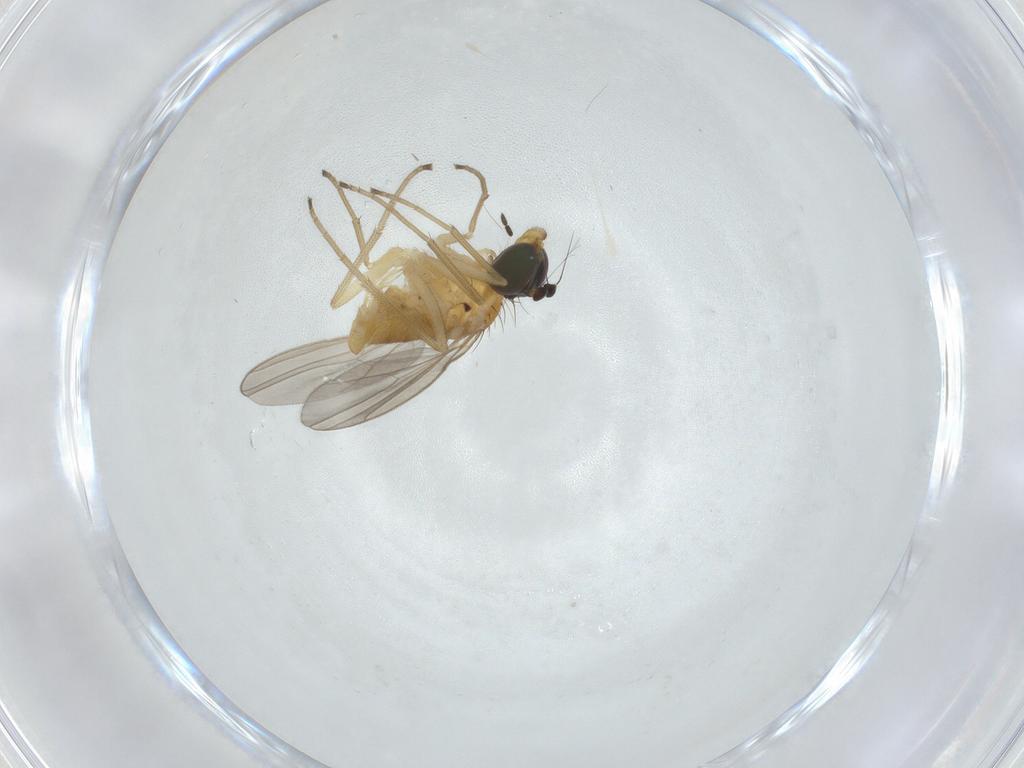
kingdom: Animalia
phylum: Arthropoda
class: Insecta
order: Diptera
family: Dolichopodidae
